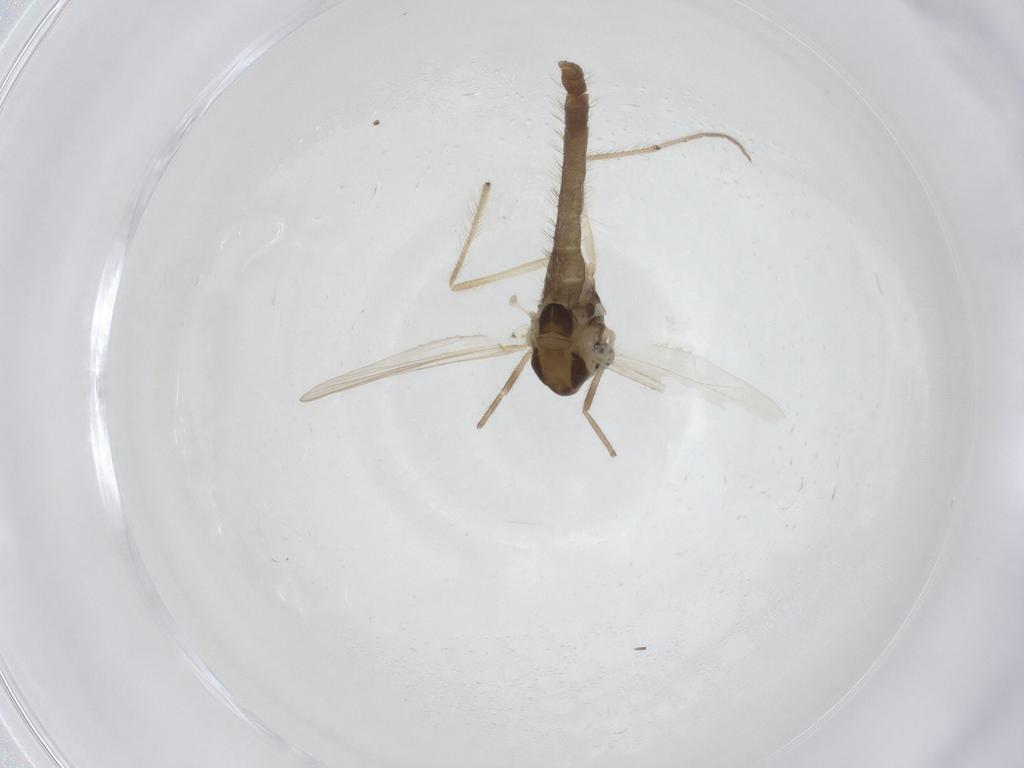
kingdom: Animalia
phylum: Arthropoda
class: Insecta
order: Diptera
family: Chironomidae
